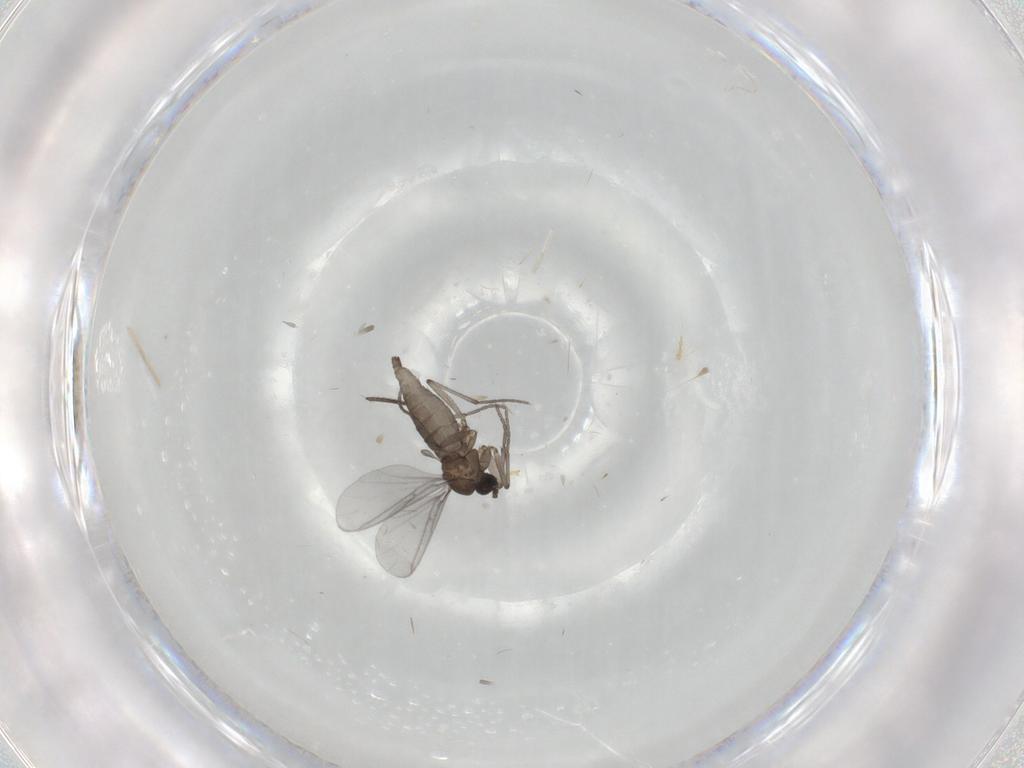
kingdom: Animalia
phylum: Arthropoda
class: Insecta
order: Diptera
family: Sciaridae
